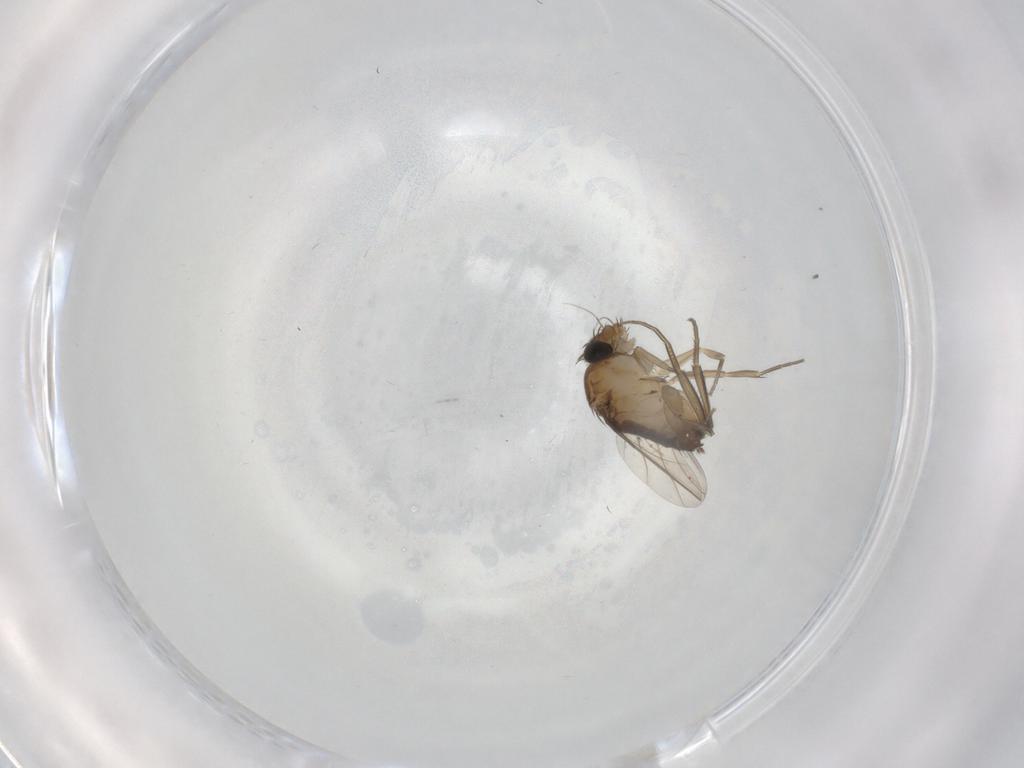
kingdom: Animalia
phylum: Arthropoda
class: Insecta
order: Diptera
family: Phoridae
